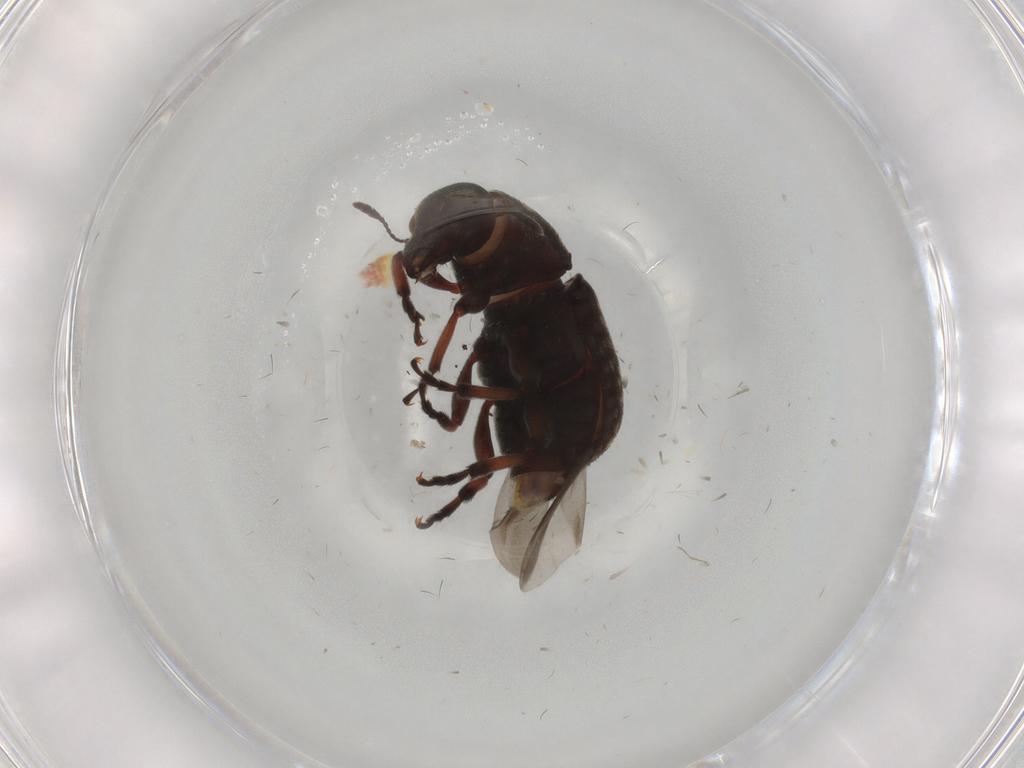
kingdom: Animalia
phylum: Arthropoda
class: Insecta
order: Coleoptera
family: Anthribidae
